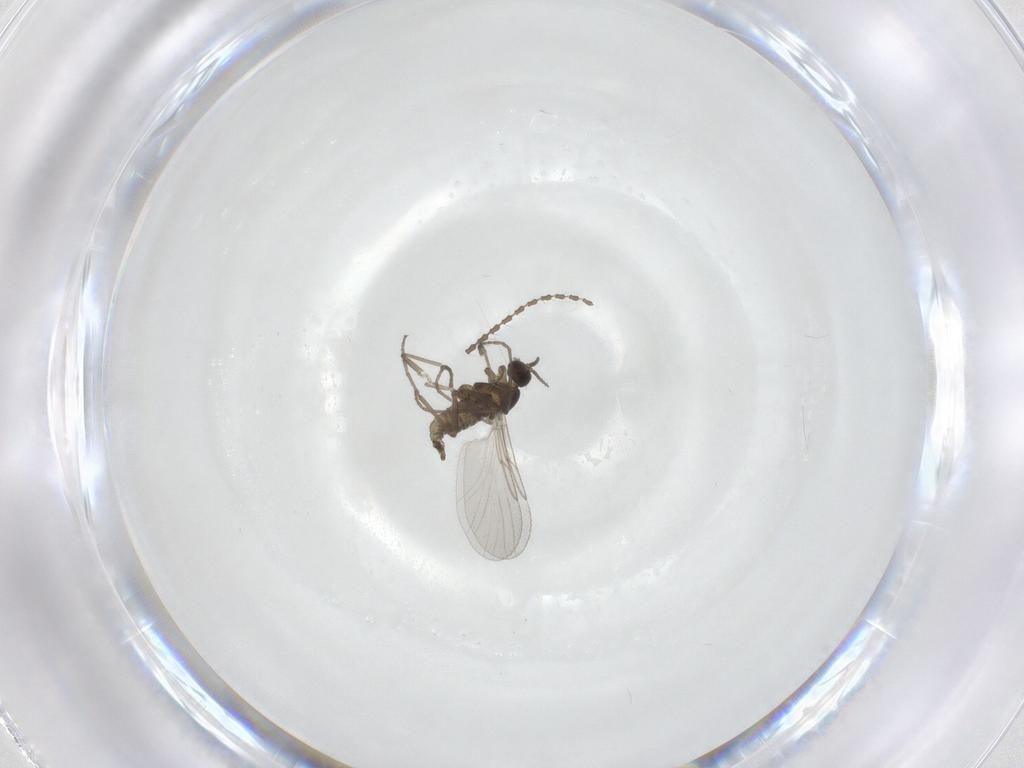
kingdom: Animalia
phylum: Arthropoda
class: Insecta
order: Diptera
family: Cecidomyiidae
